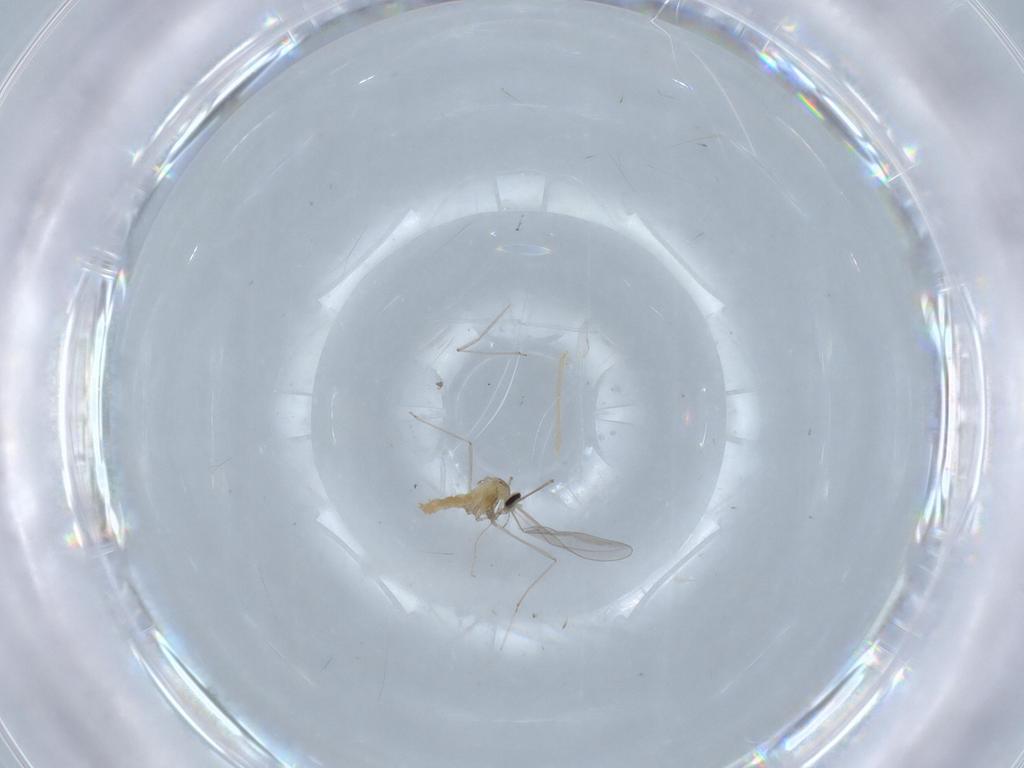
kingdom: Animalia
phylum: Arthropoda
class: Insecta
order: Diptera
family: Cecidomyiidae
